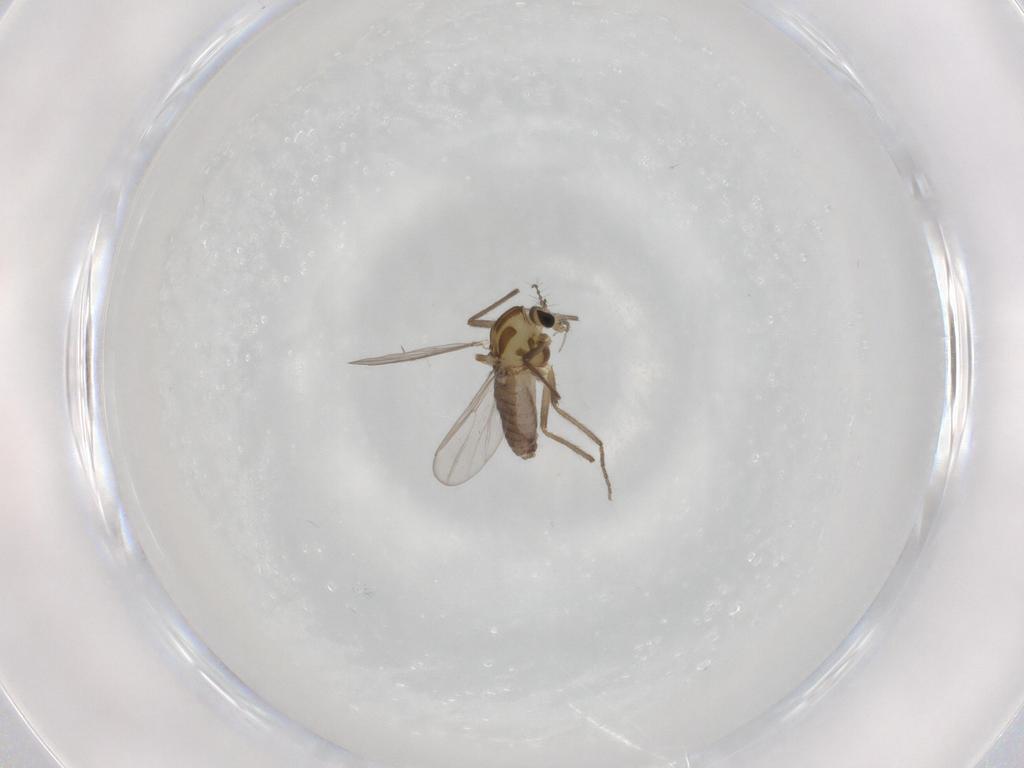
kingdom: Animalia
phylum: Arthropoda
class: Insecta
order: Diptera
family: Chironomidae
